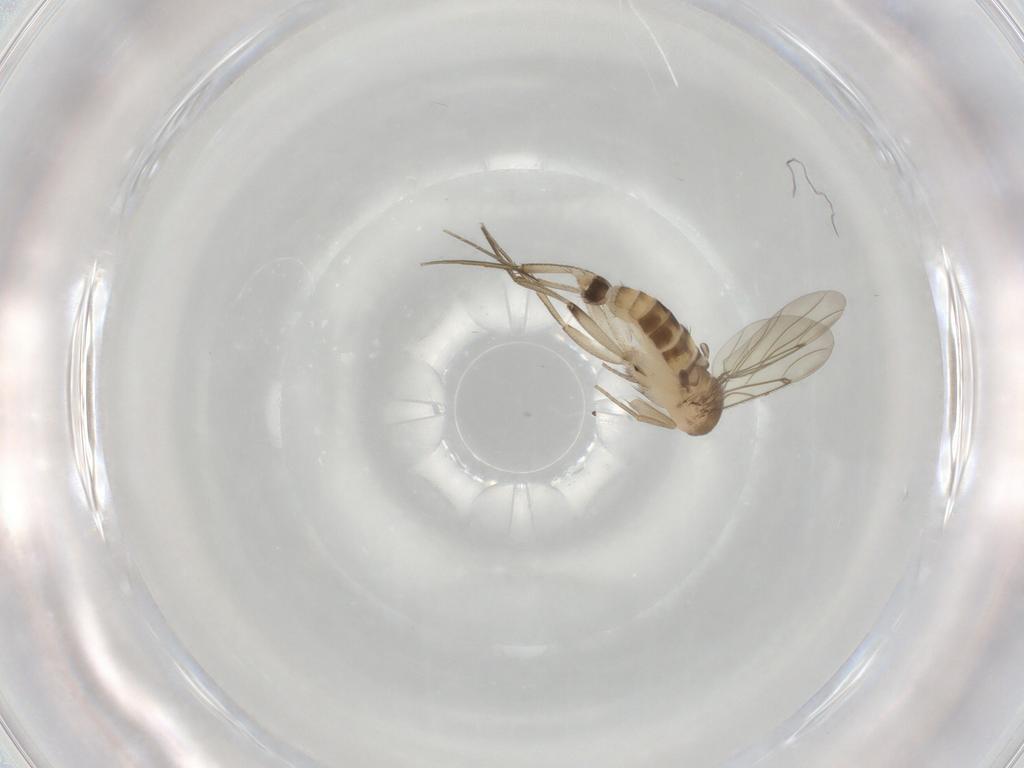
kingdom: Animalia
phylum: Arthropoda
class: Insecta
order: Diptera
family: Phoridae
